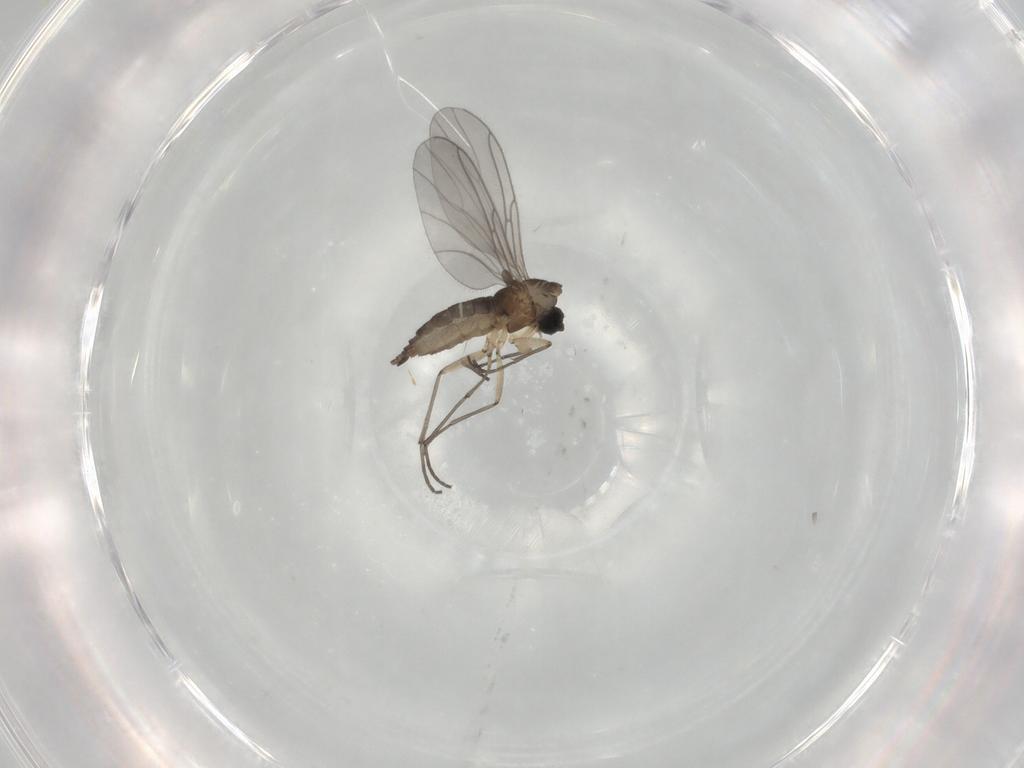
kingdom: Animalia
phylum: Arthropoda
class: Insecta
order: Diptera
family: Sciaridae
